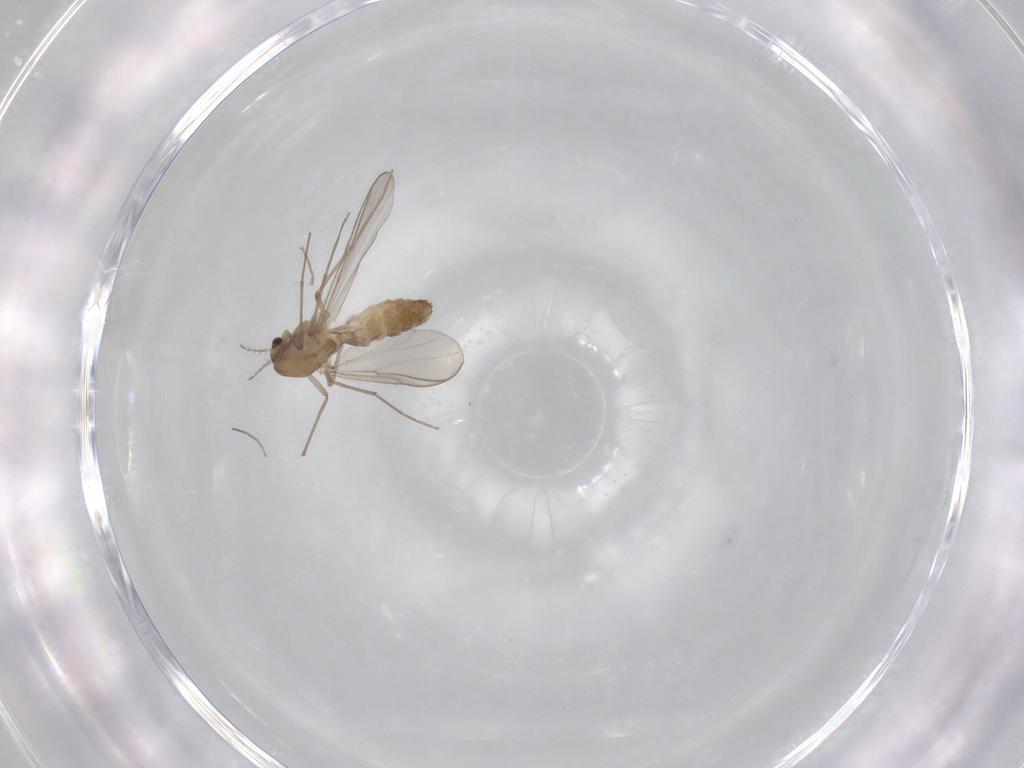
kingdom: Animalia
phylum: Arthropoda
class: Insecta
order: Diptera
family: Chironomidae
